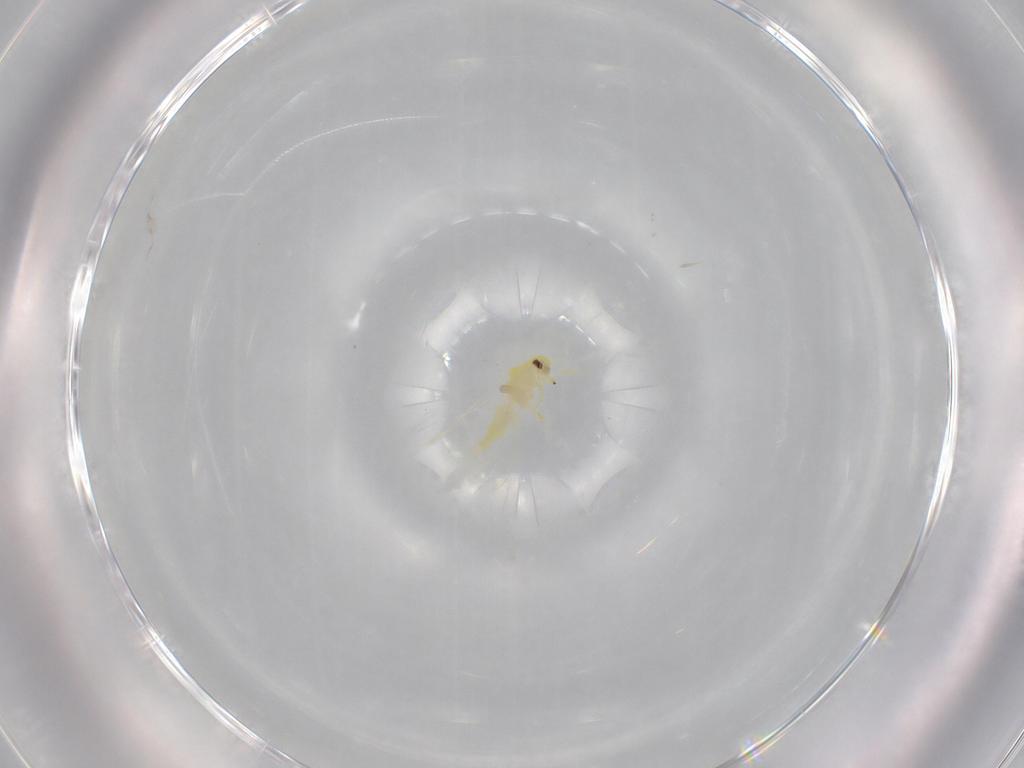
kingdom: Animalia
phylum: Arthropoda
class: Insecta
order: Hemiptera
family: Aleyrodidae
